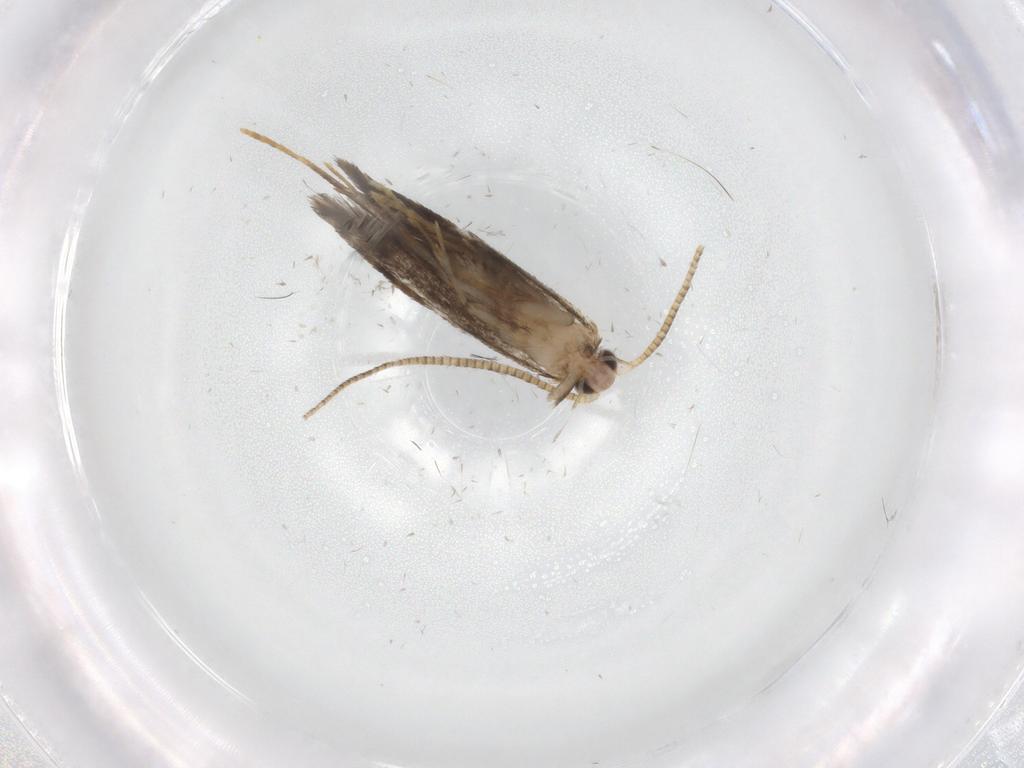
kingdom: Animalia
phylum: Arthropoda
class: Insecta
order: Lepidoptera
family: Tineidae
